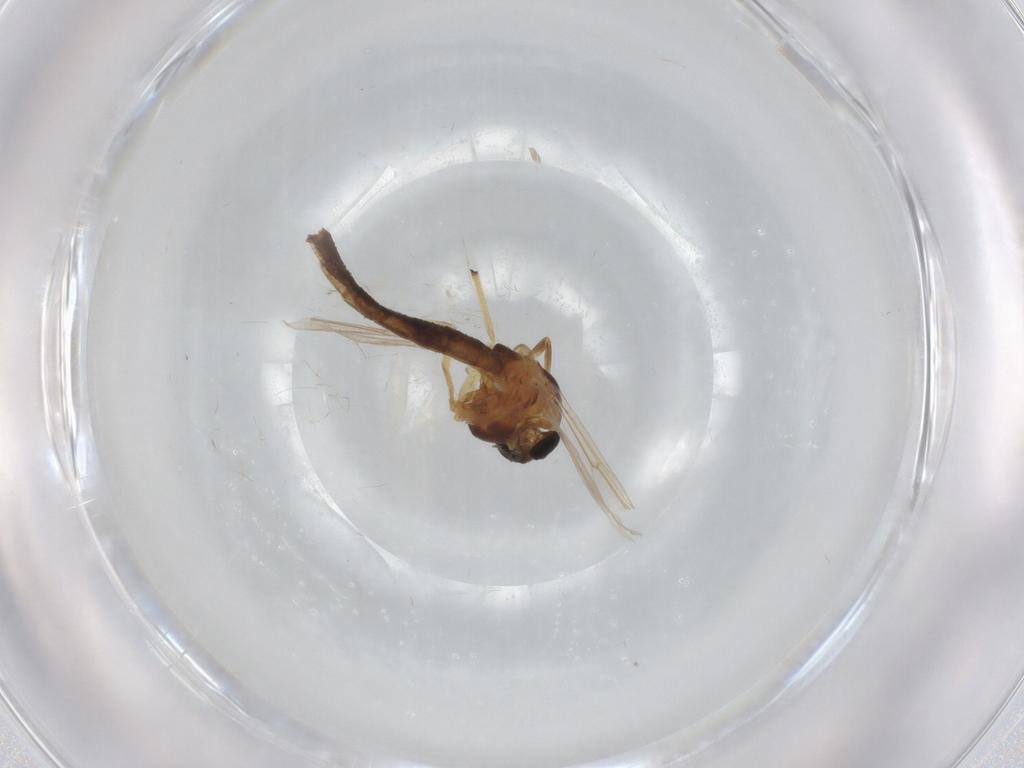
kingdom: Animalia
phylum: Arthropoda
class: Insecta
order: Diptera
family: Chironomidae
